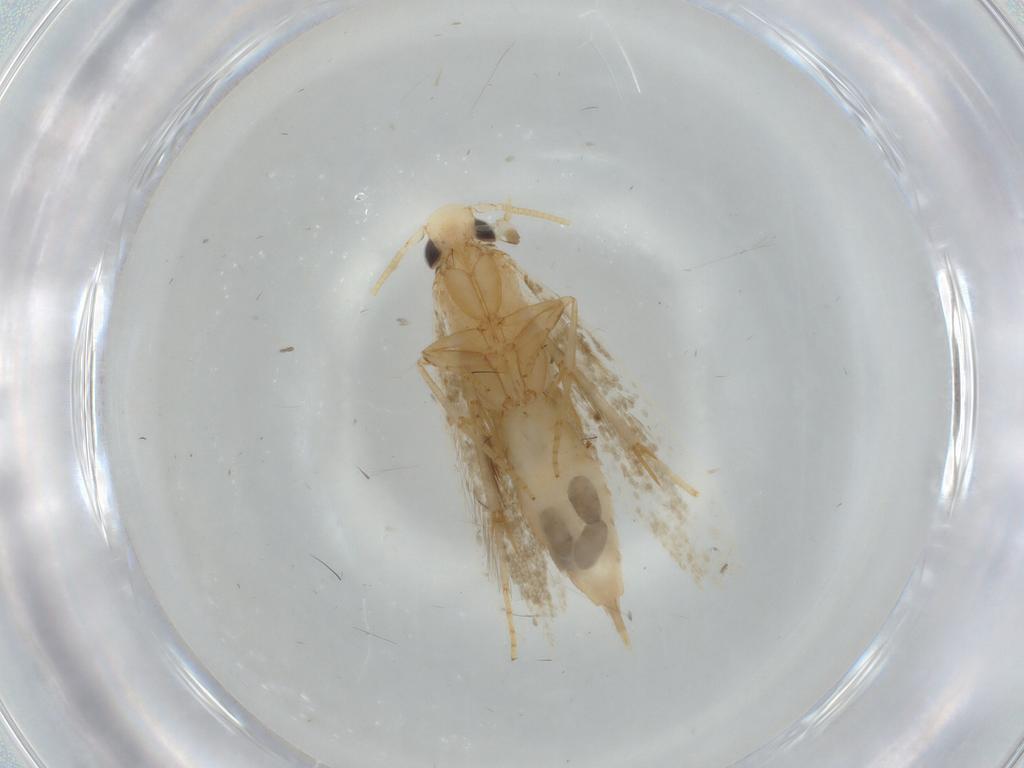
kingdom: Animalia
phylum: Arthropoda
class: Insecta
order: Lepidoptera
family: Tineidae
